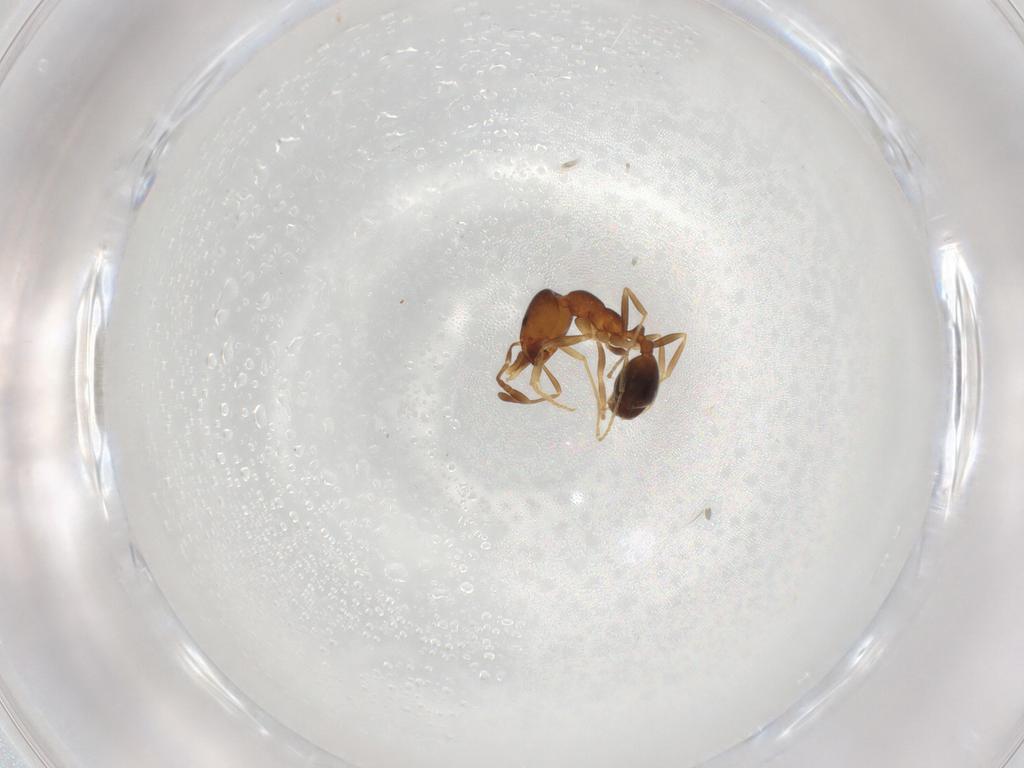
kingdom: Animalia
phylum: Arthropoda
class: Insecta
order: Hymenoptera
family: Formicidae
